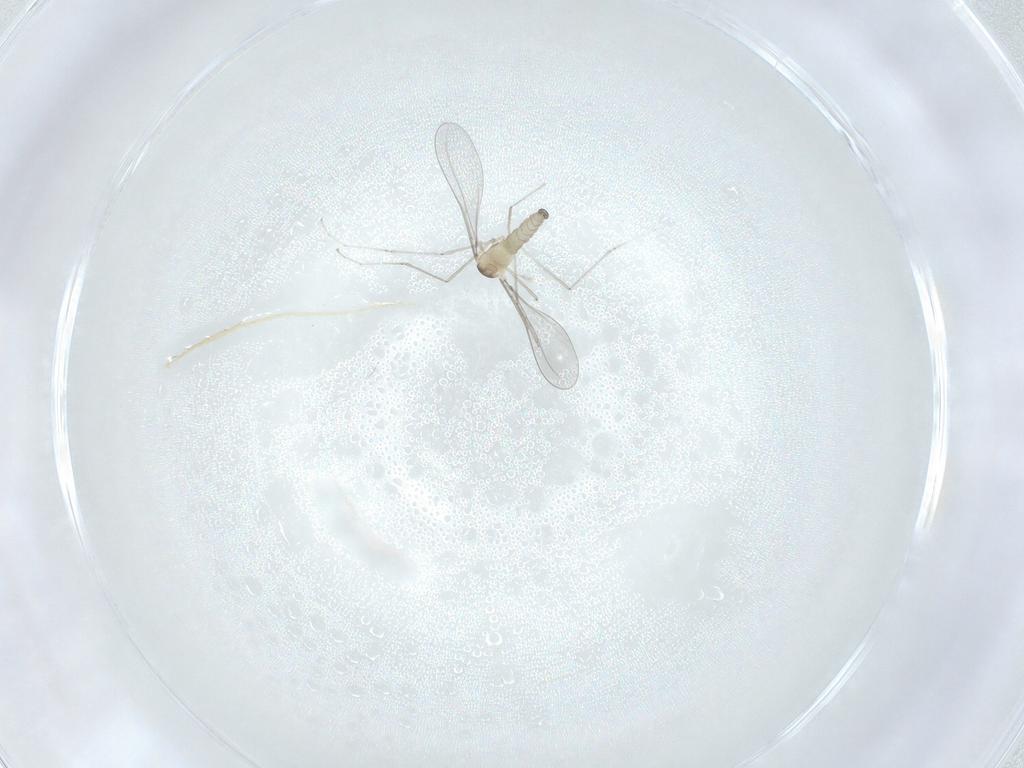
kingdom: Animalia
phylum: Arthropoda
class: Insecta
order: Diptera
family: Cecidomyiidae
